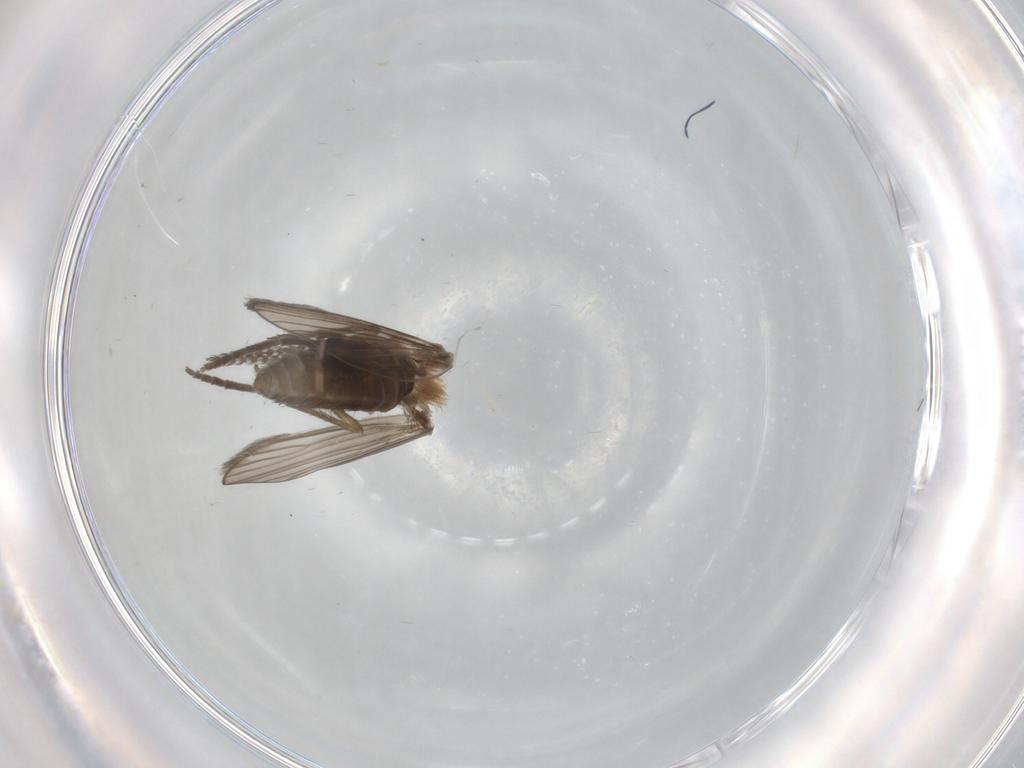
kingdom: Animalia
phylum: Arthropoda
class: Insecta
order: Diptera
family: Psychodidae
